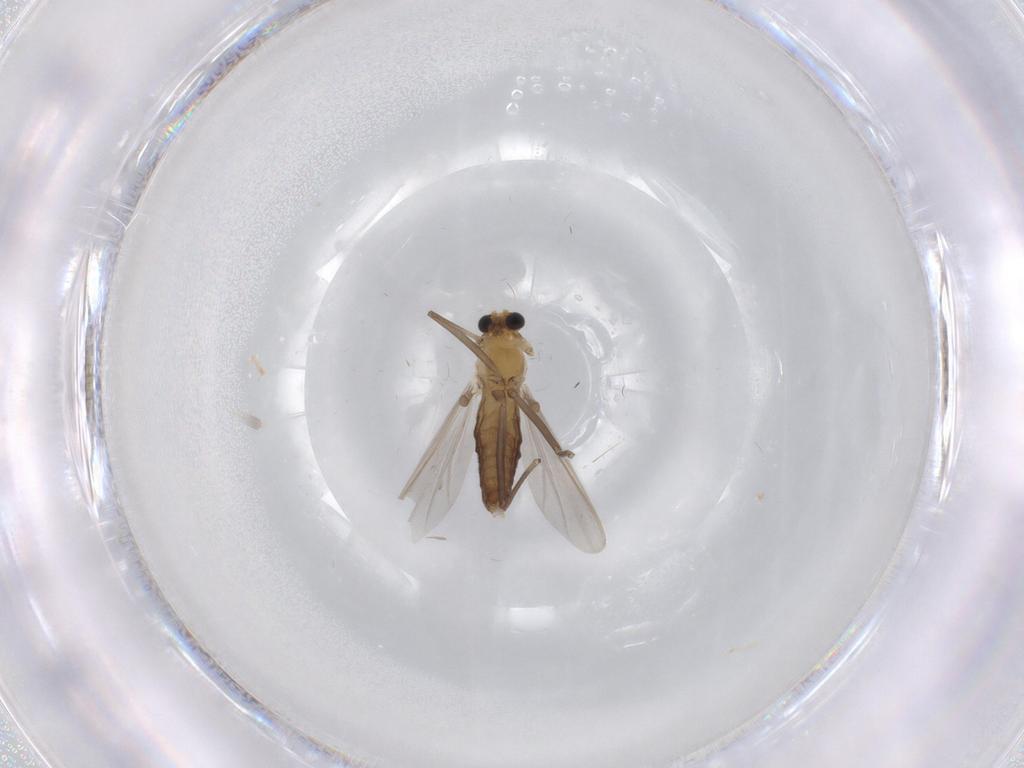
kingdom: Animalia
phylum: Arthropoda
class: Insecta
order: Diptera
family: Chironomidae
